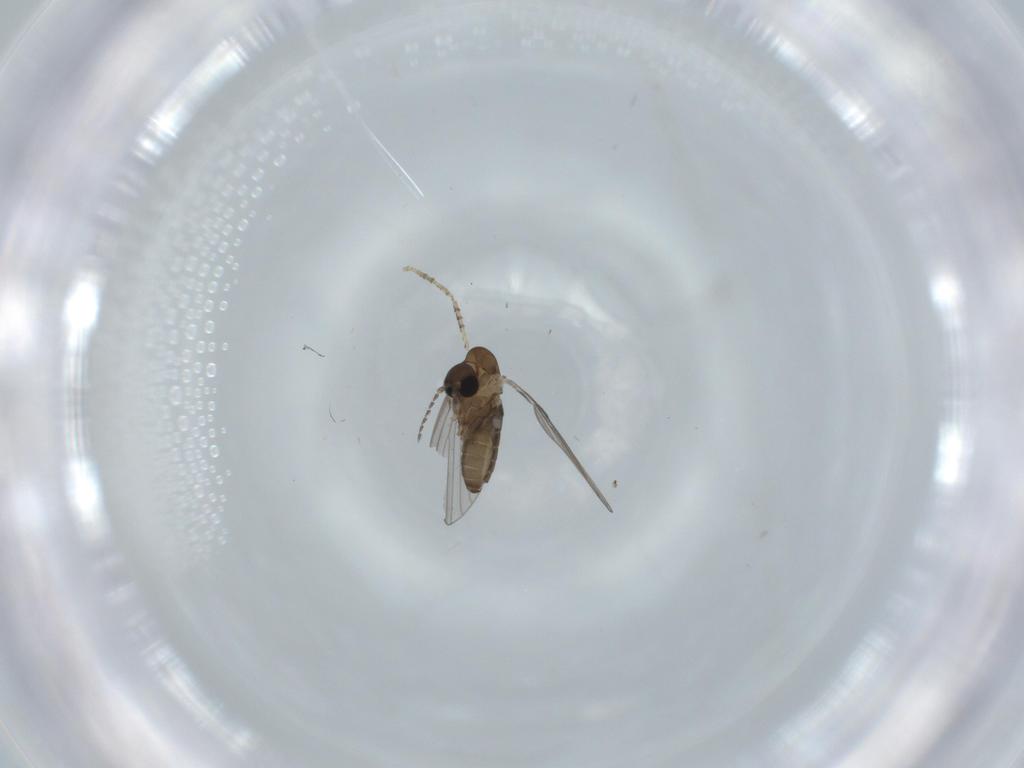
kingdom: Animalia
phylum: Arthropoda
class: Insecta
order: Diptera
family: Psychodidae
